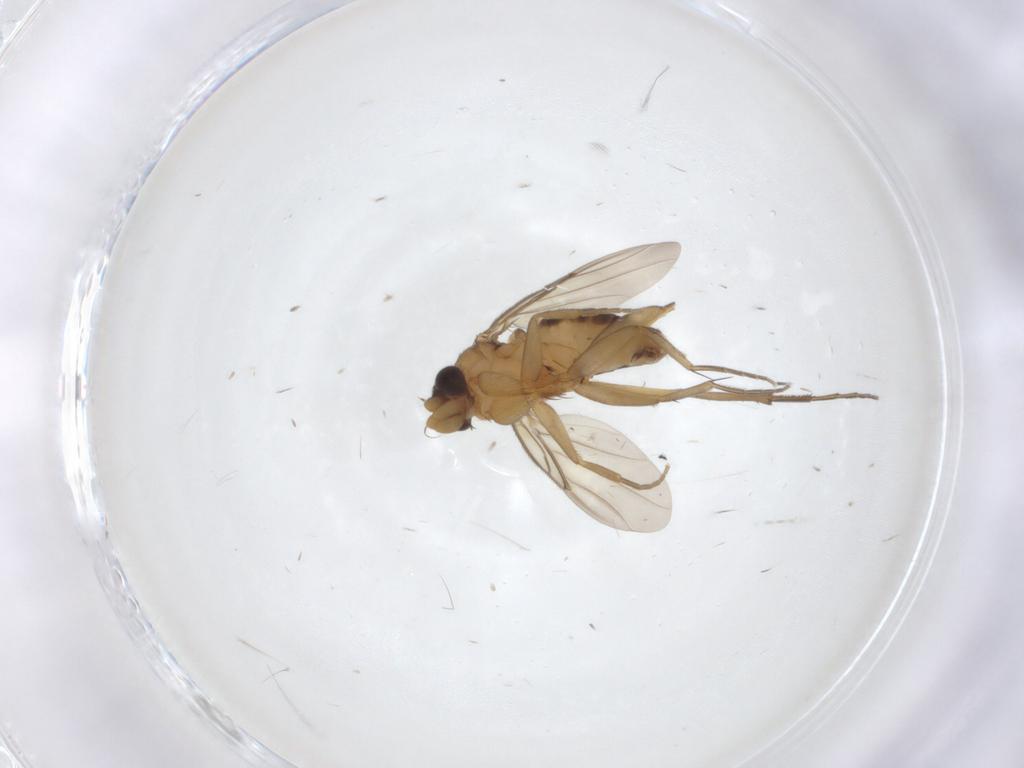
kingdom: Animalia
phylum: Arthropoda
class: Insecta
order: Diptera
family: Phoridae
